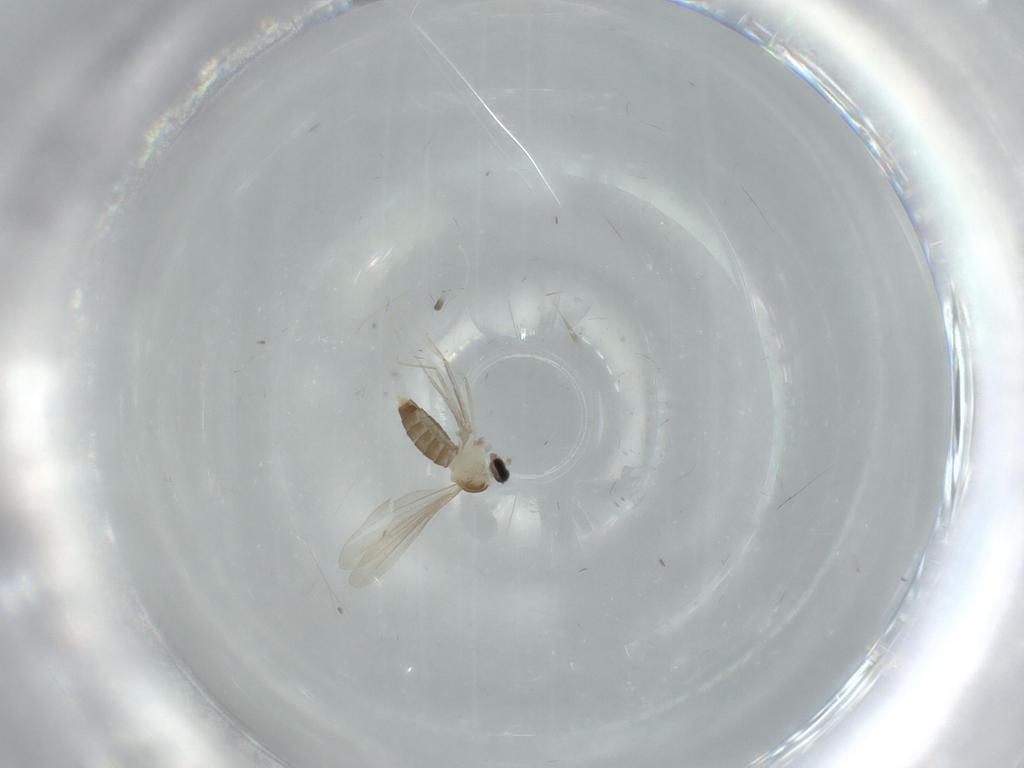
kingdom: Animalia
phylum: Arthropoda
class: Insecta
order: Diptera
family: Cecidomyiidae
